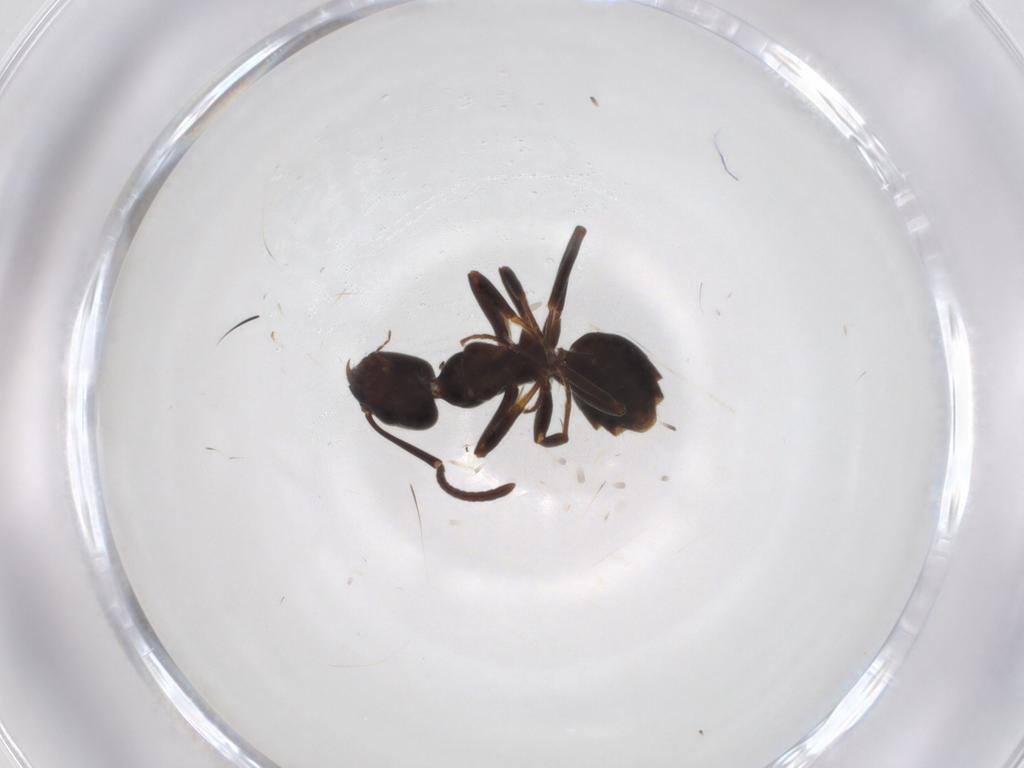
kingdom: Animalia
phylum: Arthropoda
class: Insecta
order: Hymenoptera
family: Formicidae
